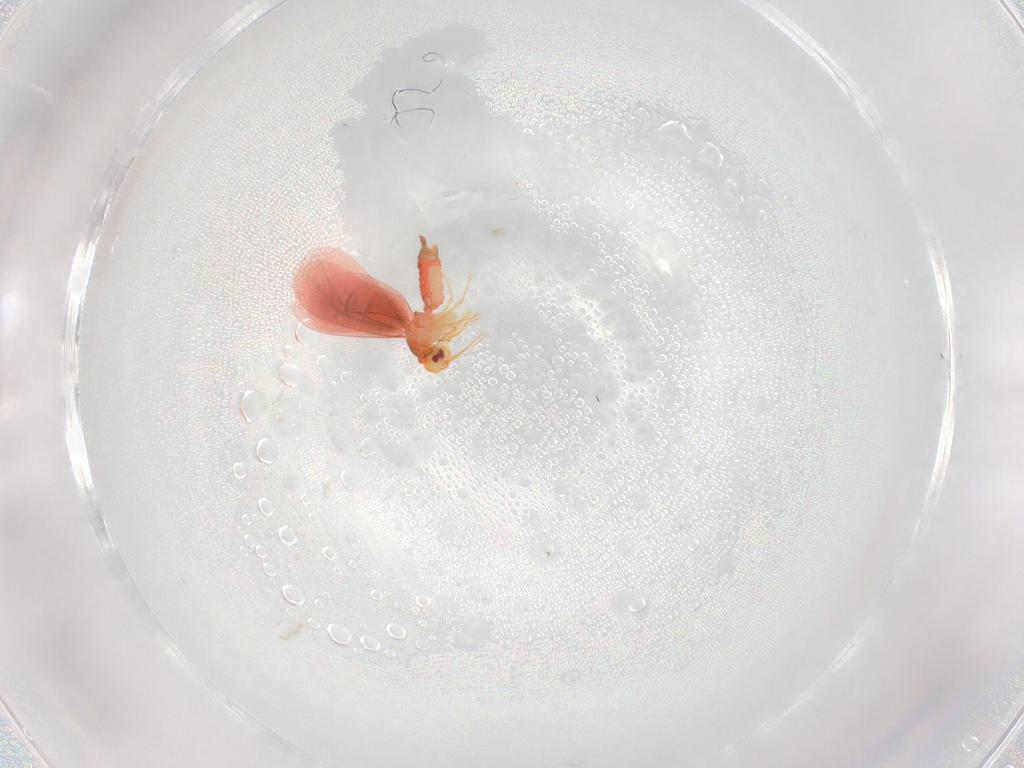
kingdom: Animalia
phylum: Arthropoda
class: Insecta
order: Hemiptera
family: Aleyrodidae
